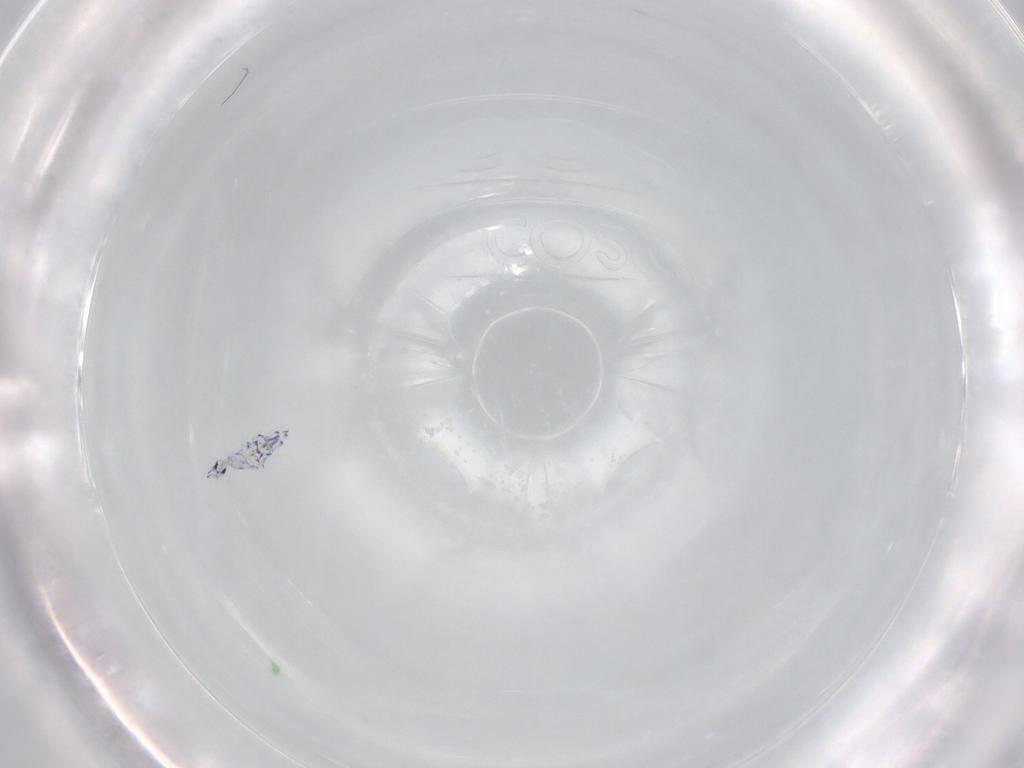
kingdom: Animalia
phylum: Arthropoda
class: Collembola
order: Entomobryomorpha
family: Entomobryidae
